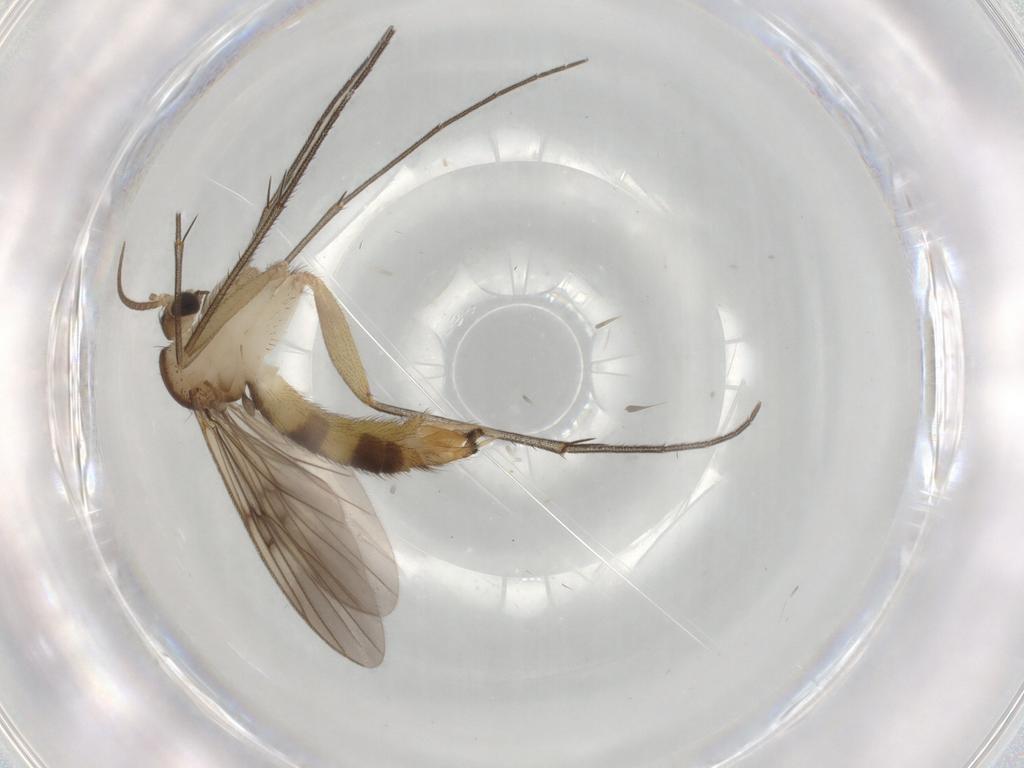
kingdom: Animalia
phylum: Arthropoda
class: Insecta
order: Diptera
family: Mycetophilidae
